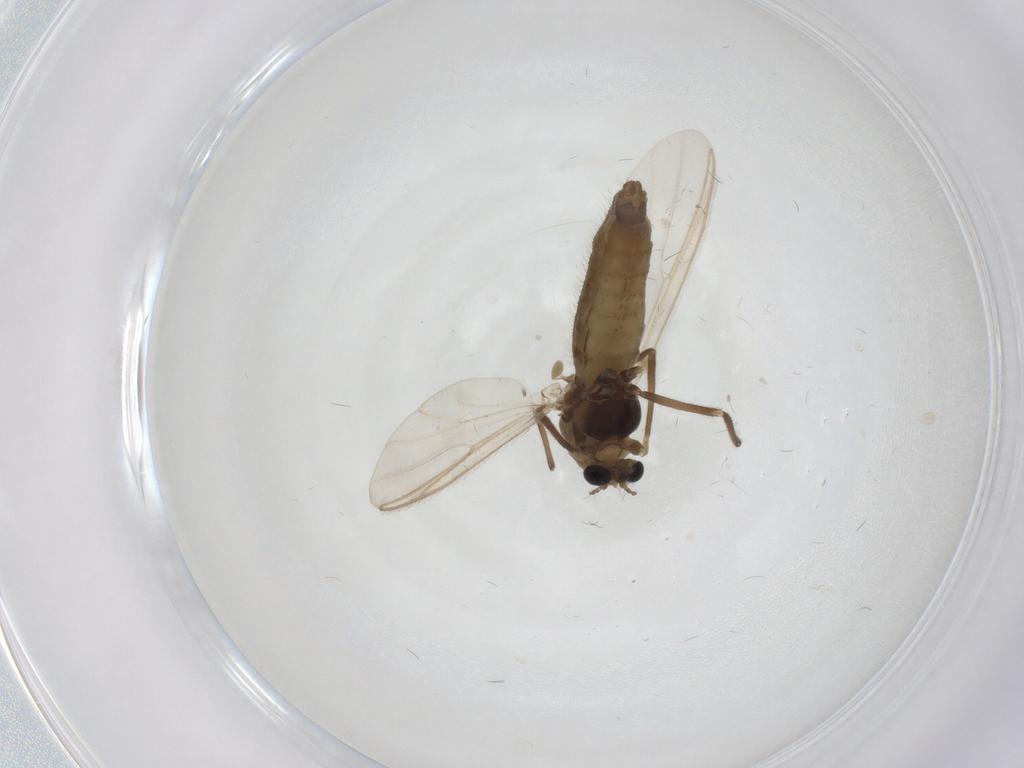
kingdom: Animalia
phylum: Arthropoda
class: Insecta
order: Diptera
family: Chironomidae
